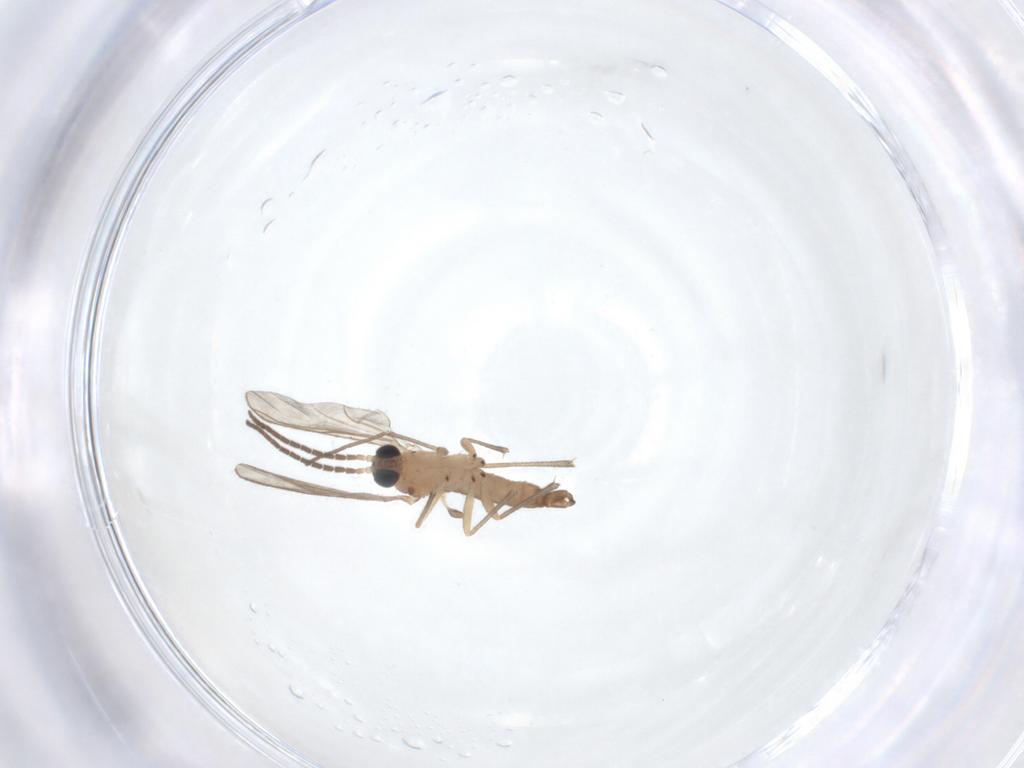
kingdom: Animalia
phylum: Arthropoda
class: Insecta
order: Diptera
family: Sciaridae
